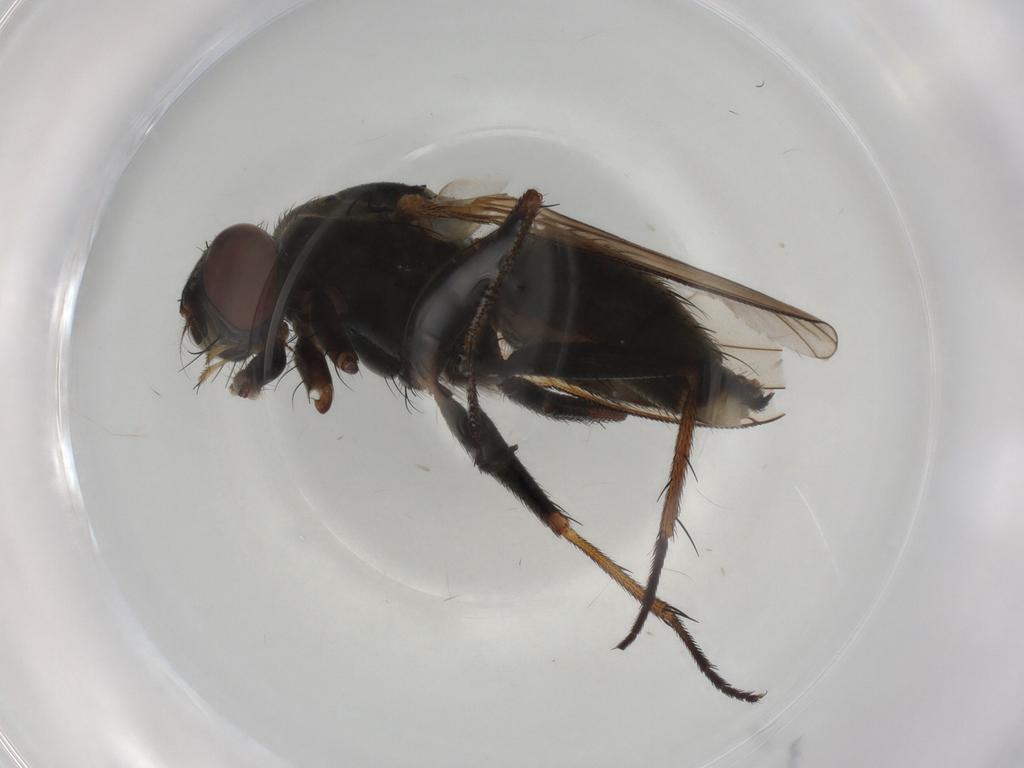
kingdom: Animalia
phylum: Arthropoda
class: Insecta
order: Diptera
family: Muscidae
